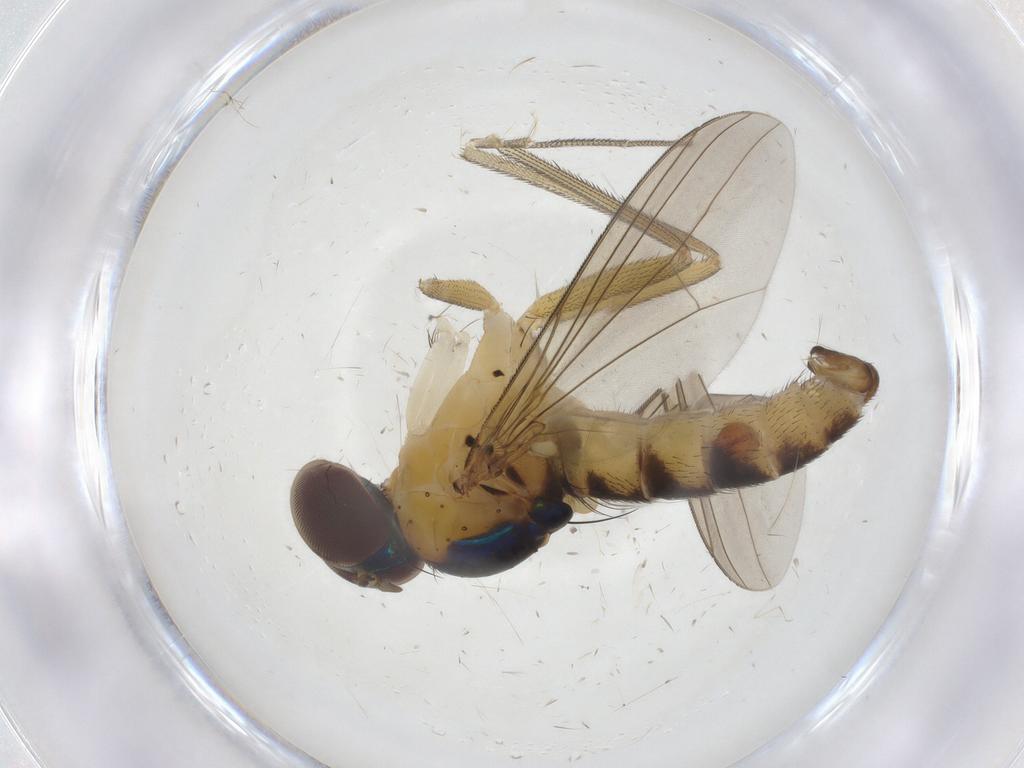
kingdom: Animalia
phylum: Arthropoda
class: Insecta
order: Diptera
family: Dolichopodidae
